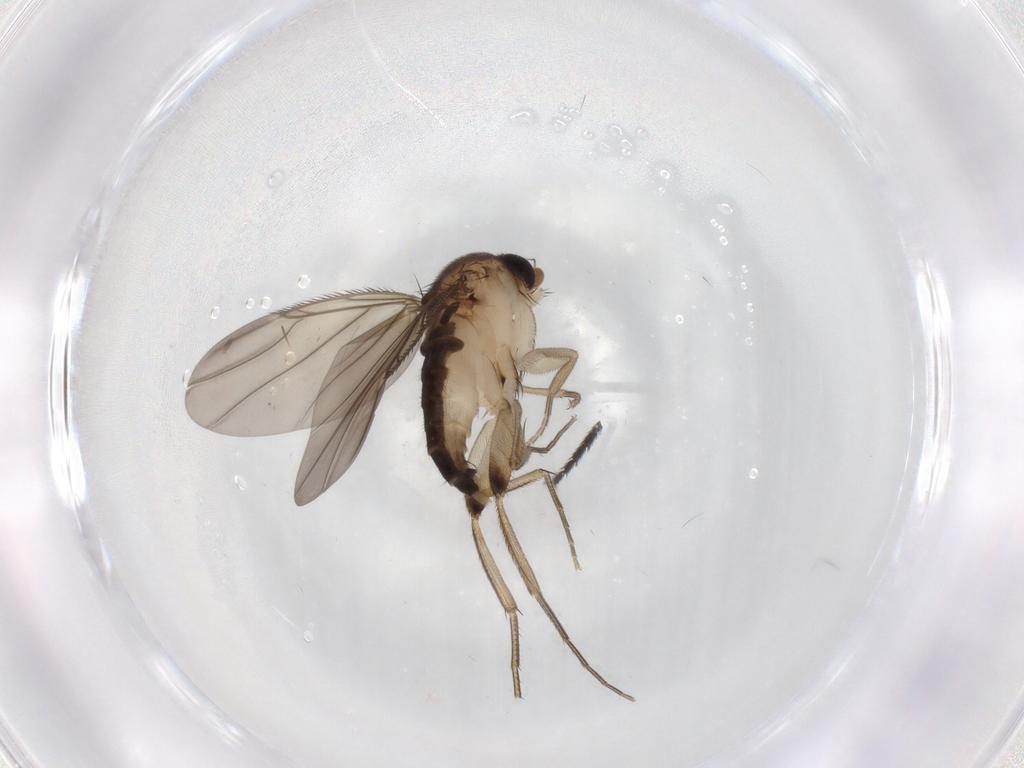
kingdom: Animalia
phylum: Arthropoda
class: Insecta
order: Diptera
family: Phoridae
